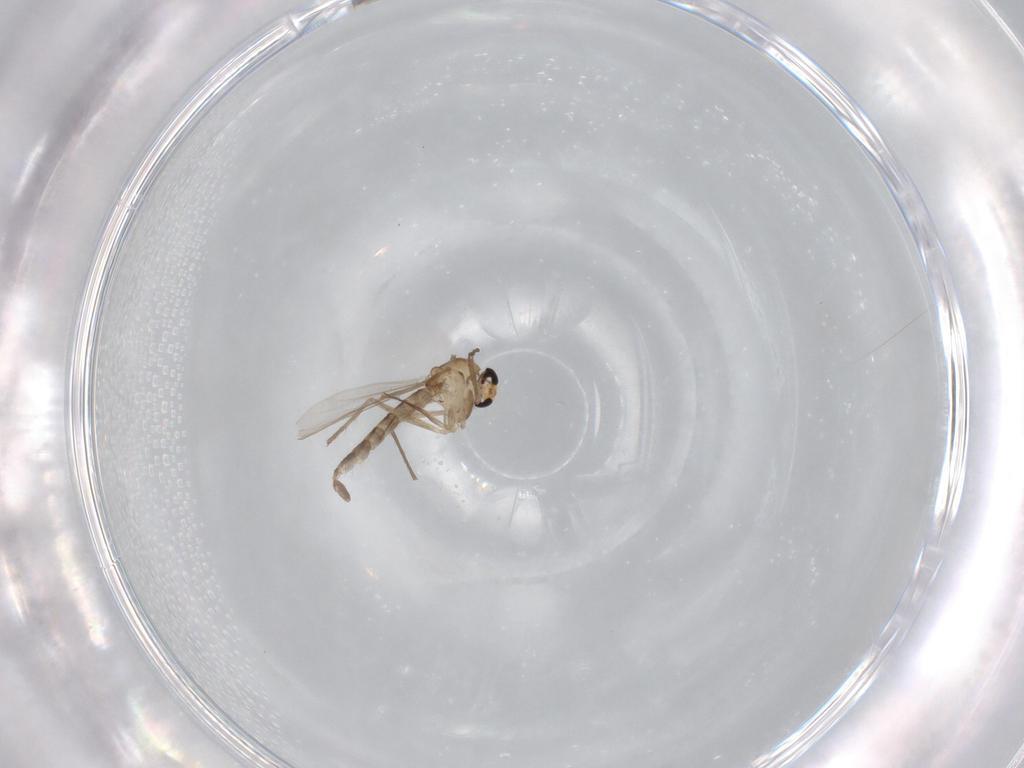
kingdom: Animalia
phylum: Arthropoda
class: Insecta
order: Diptera
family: Chironomidae
